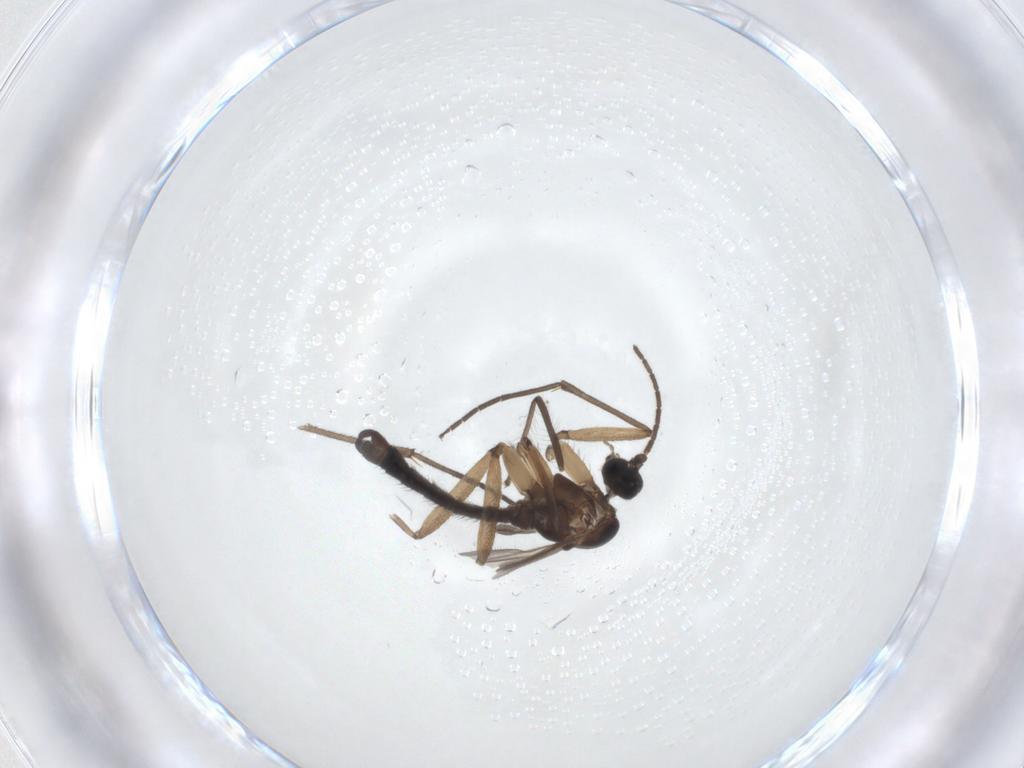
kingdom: Animalia
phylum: Arthropoda
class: Insecta
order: Diptera
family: Sciaridae
